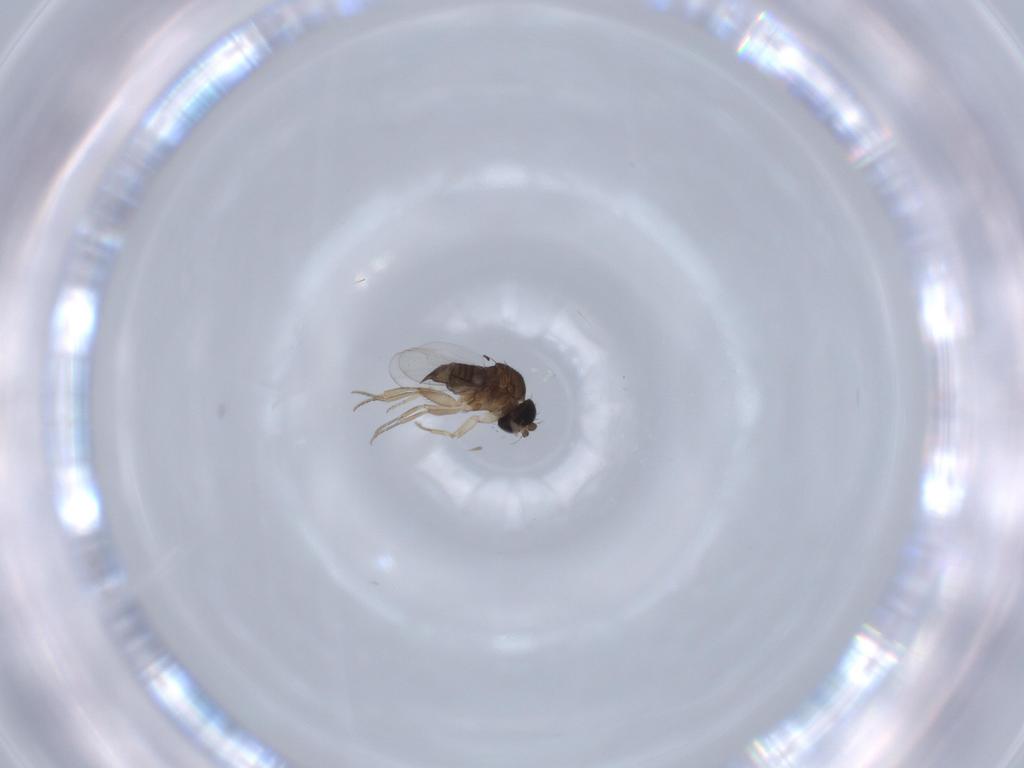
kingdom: Animalia
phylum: Arthropoda
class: Insecta
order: Diptera
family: Phoridae
